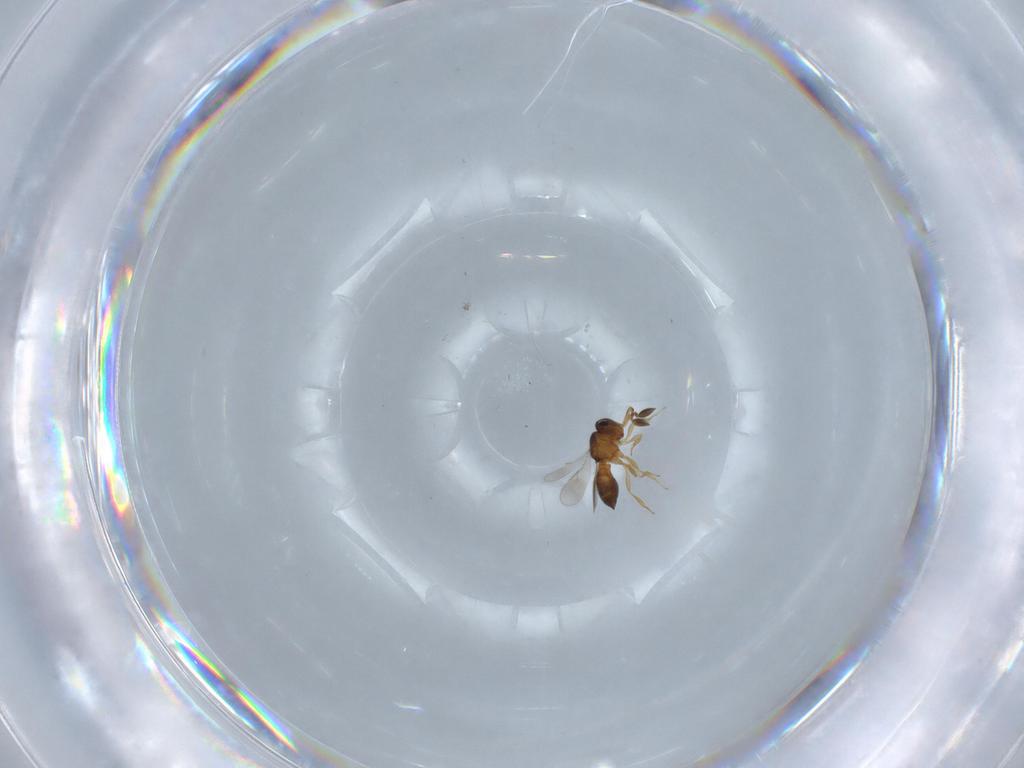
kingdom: Animalia
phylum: Arthropoda
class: Insecta
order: Hymenoptera
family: Scelionidae
